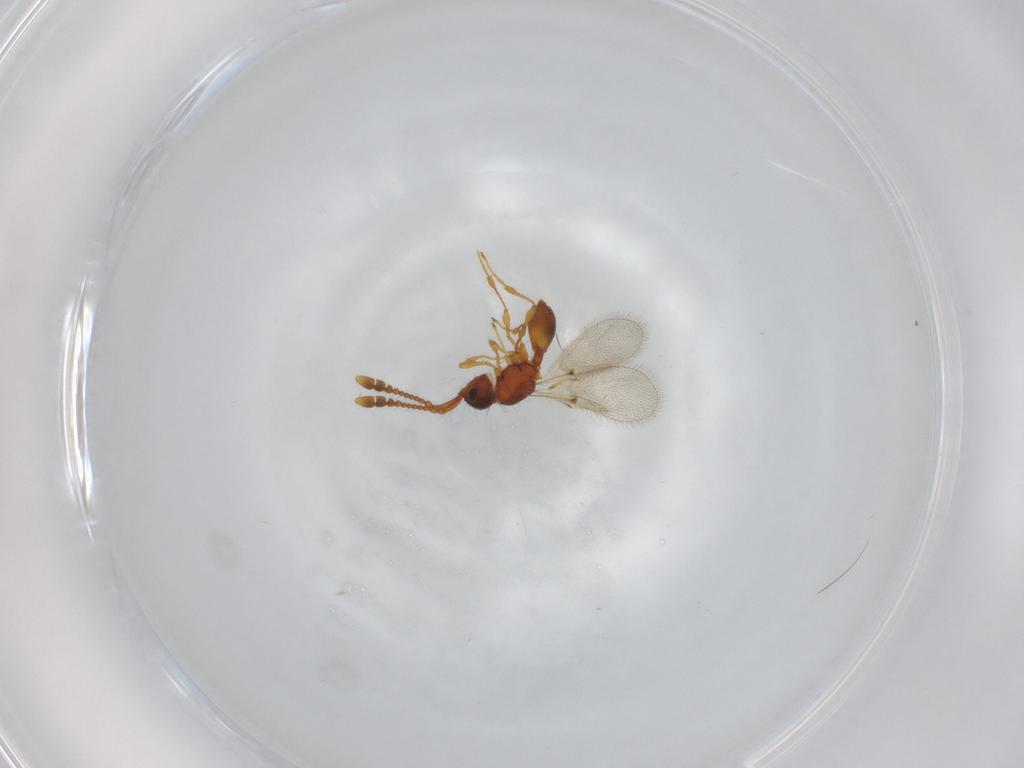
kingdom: Animalia
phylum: Arthropoda
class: Insecta
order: Hymenoptera
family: Diapriidae
